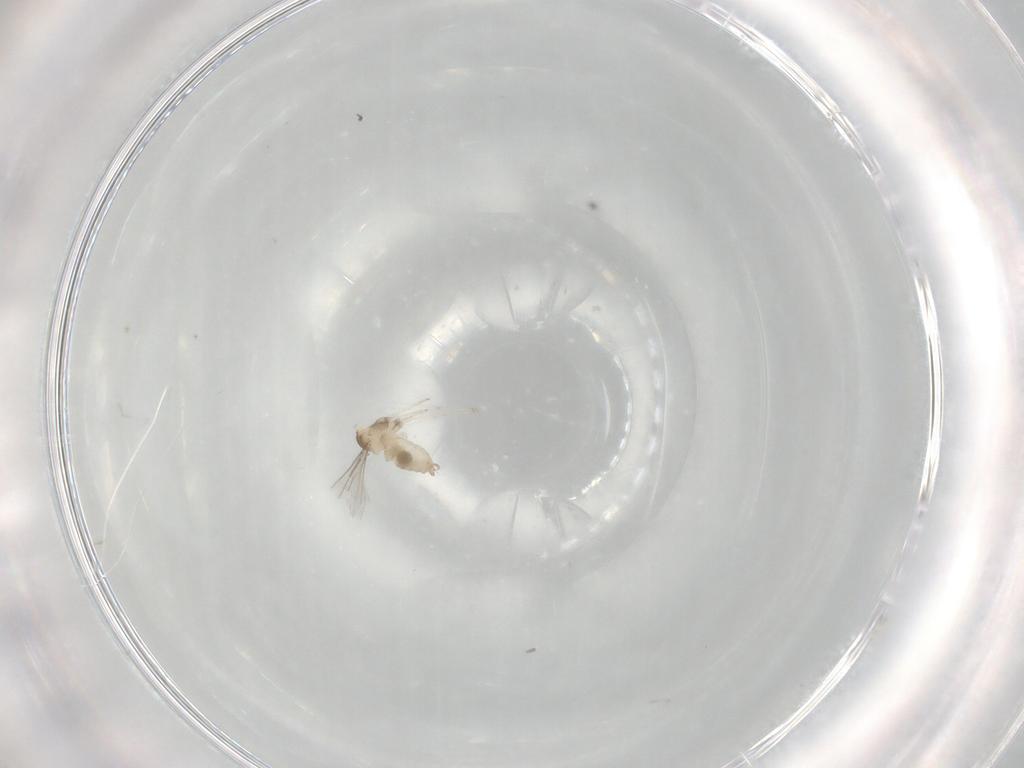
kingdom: Animalia
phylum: Arthropoda
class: Insecta
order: Diptera
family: Cecidomyiidae
